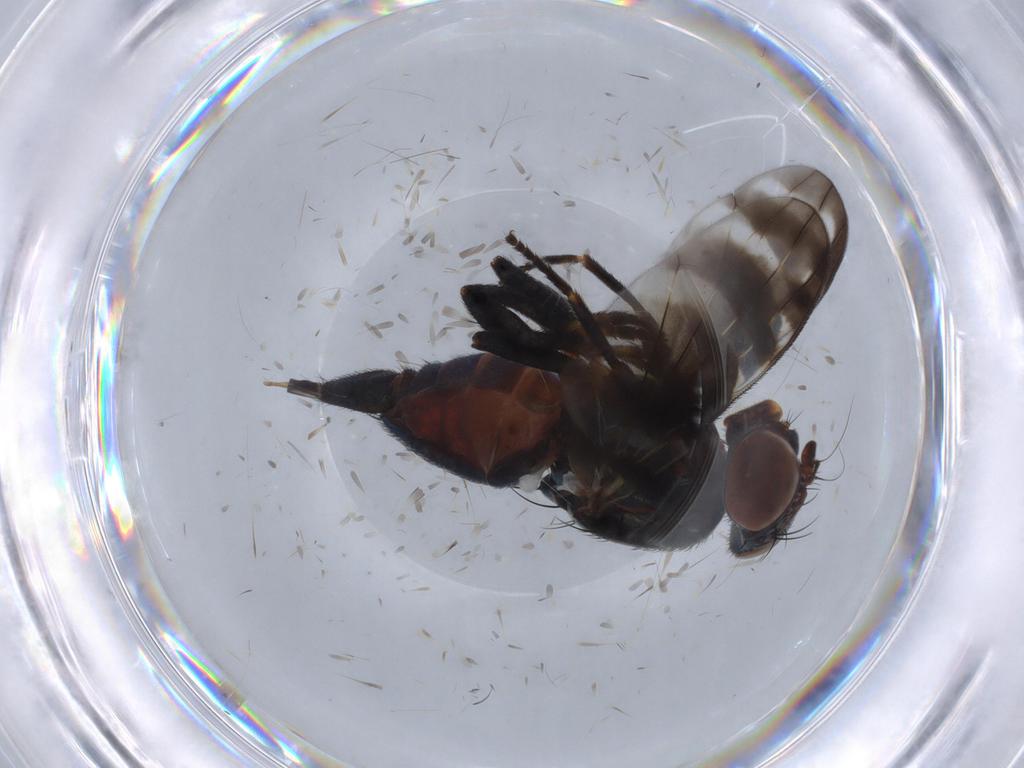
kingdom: Animalia
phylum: Arthropoda
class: Insecta
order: Diptera
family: Ulidiidae
